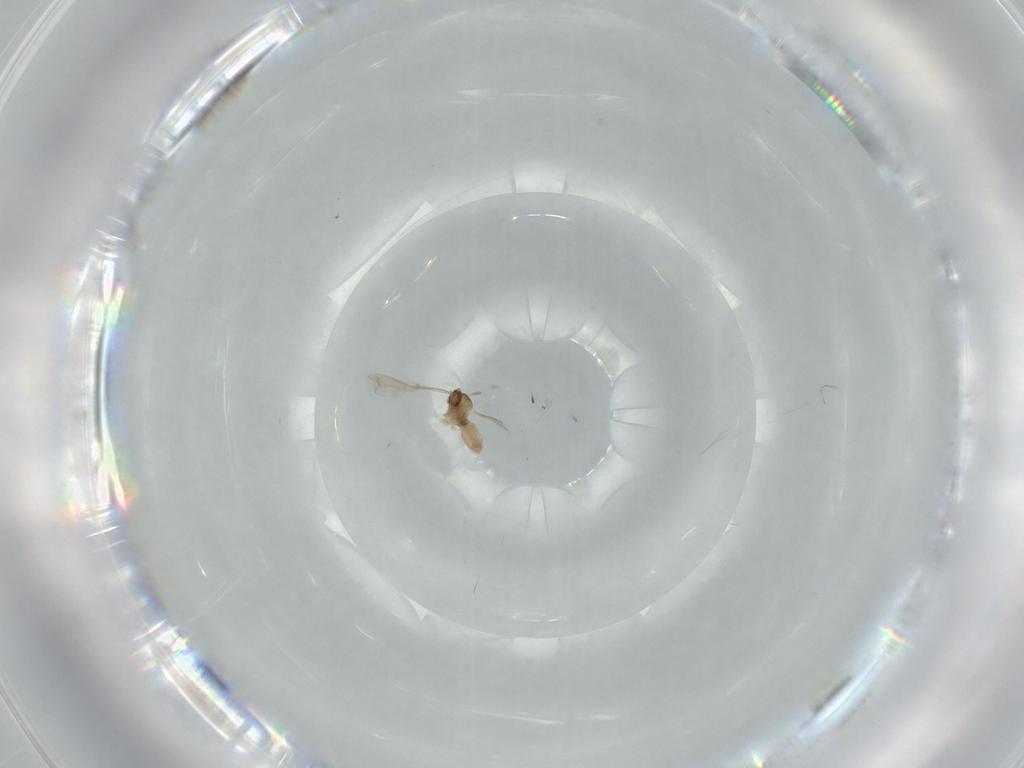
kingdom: Animalia
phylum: Arthropoda
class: Insecta
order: Diptera
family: Cecidomyiidae
